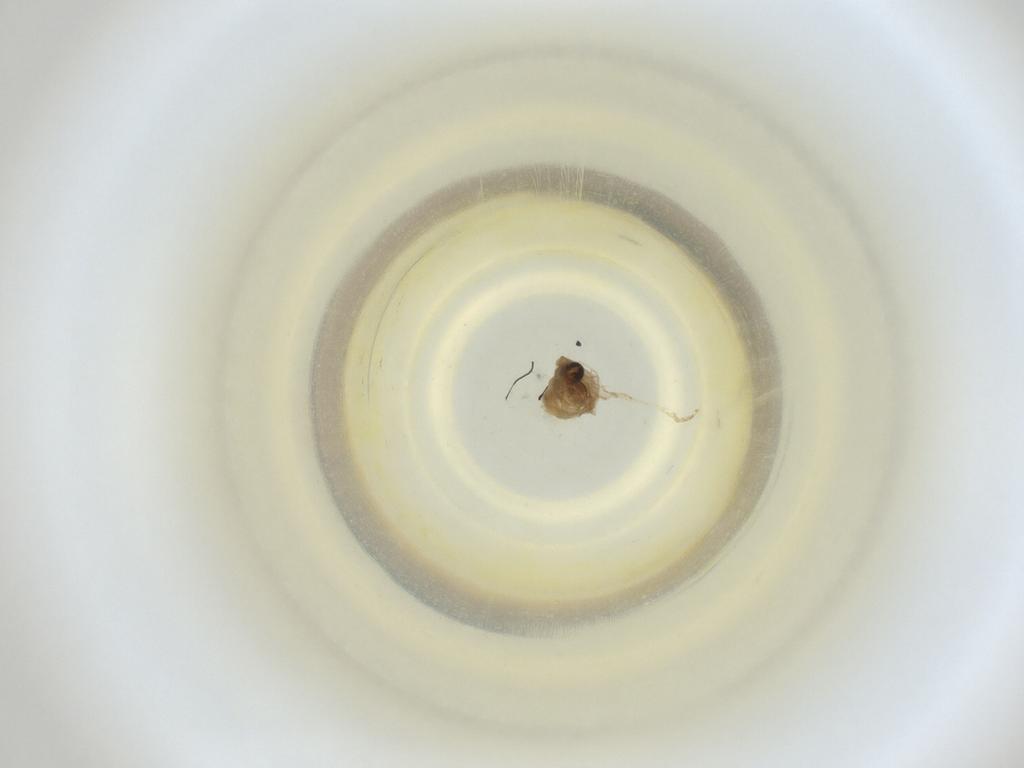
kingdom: Animalia
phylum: Arthropoda
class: Insecta
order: Diptera
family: Cecidomyiidae
